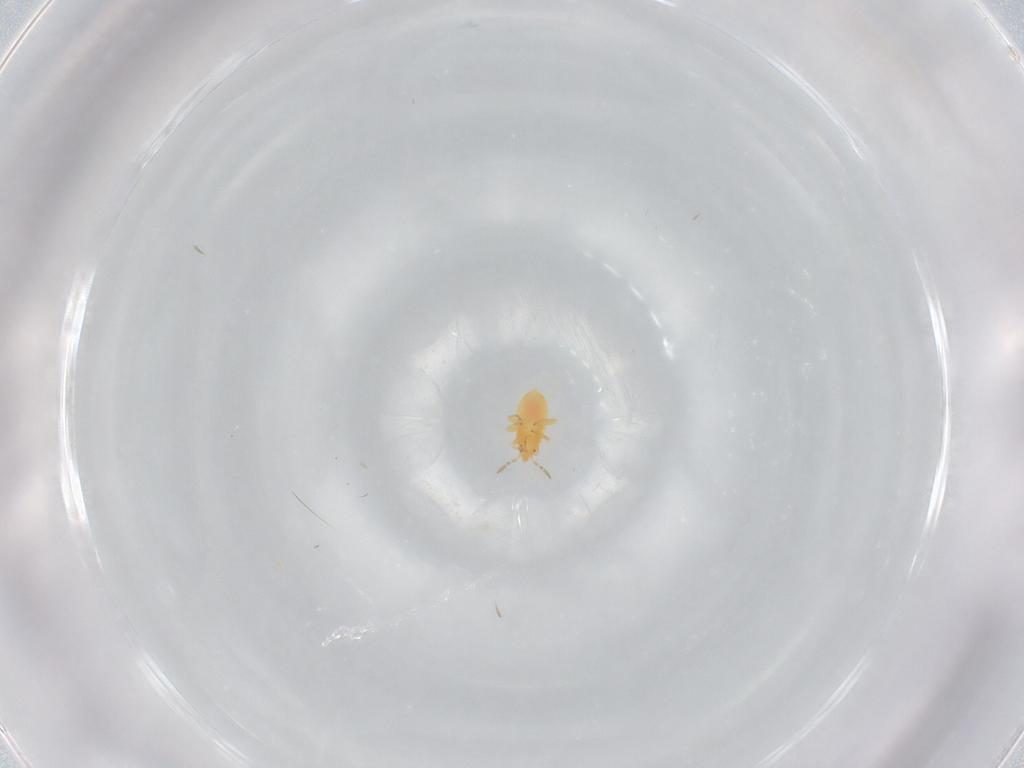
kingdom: Animalia
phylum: Arthropoda
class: Insecta
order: Hemiptera
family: Anthocoridae
